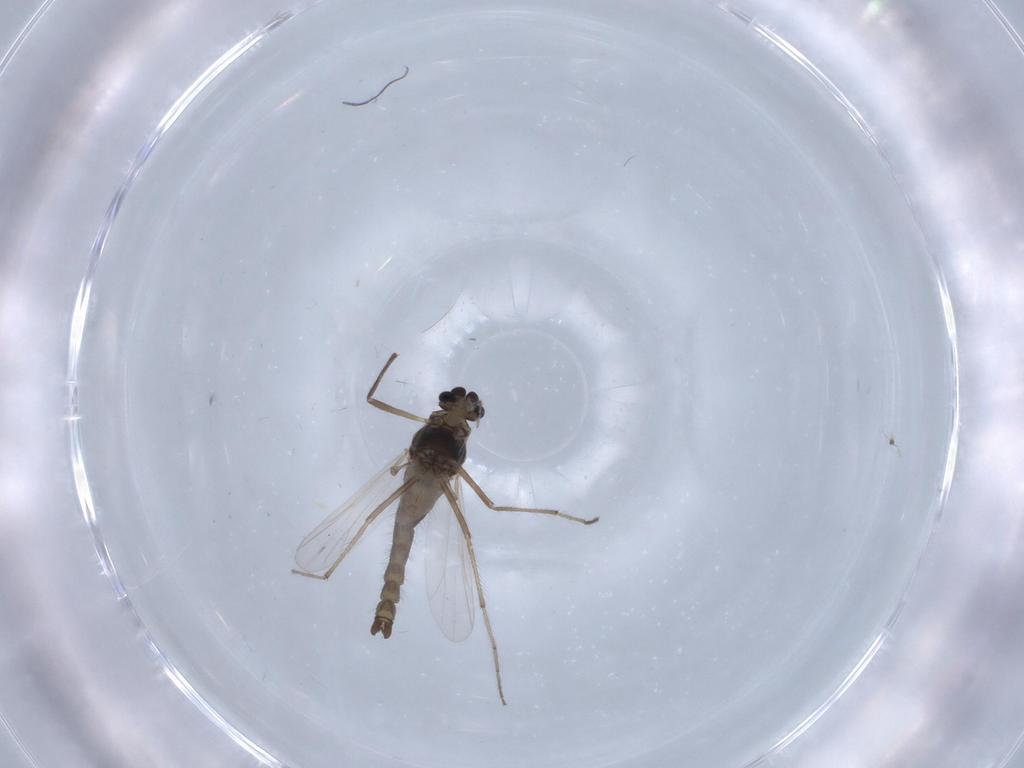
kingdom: Animalia
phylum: Arthropoda
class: Insecta
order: Diptera
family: Chironomidae
